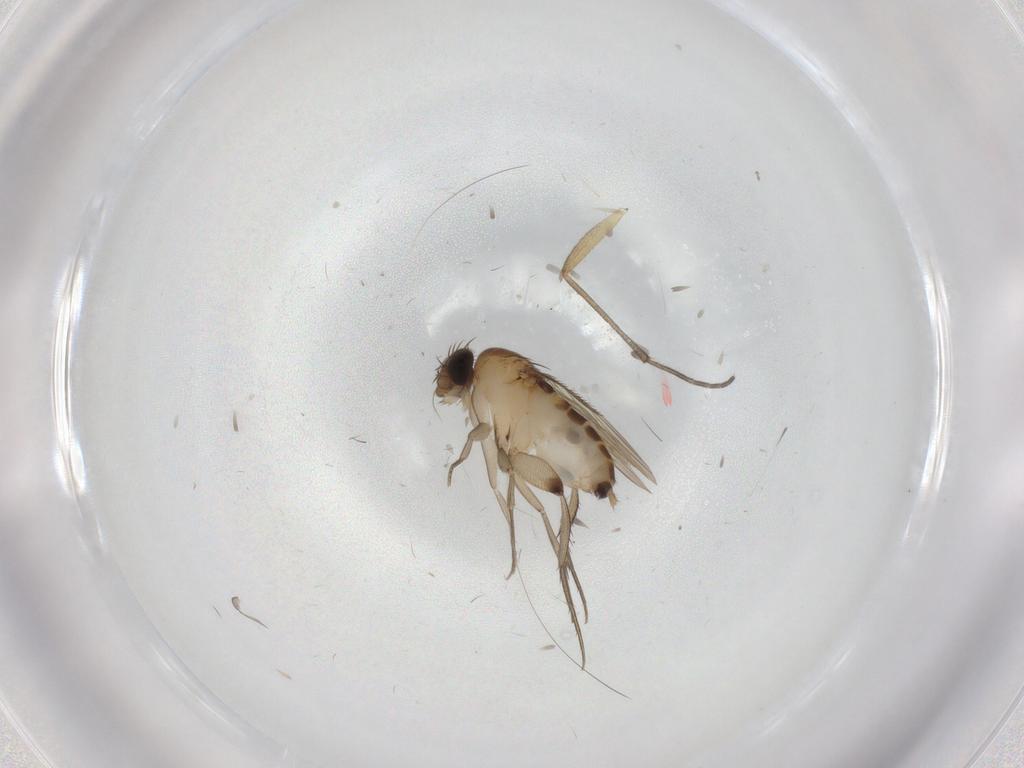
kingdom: Animalia
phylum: Arthropoda
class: Insecta
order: Diptera
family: Phoridae
